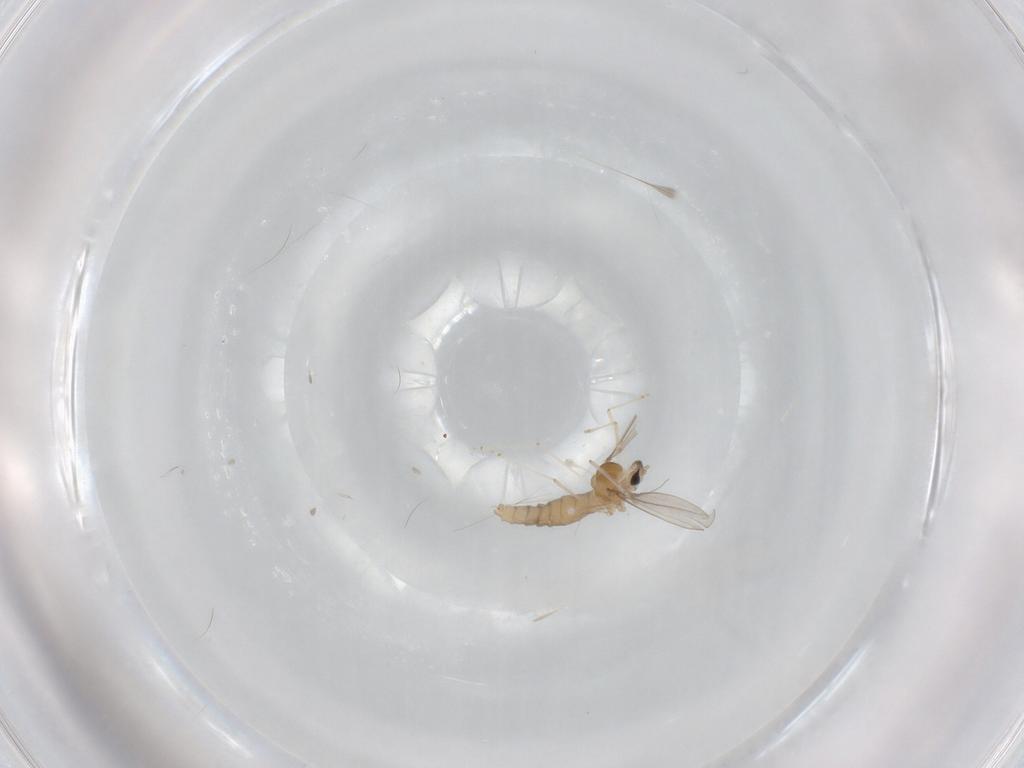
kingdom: Animalia
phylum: Arthropoda
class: Insecta
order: Diptera
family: Cecidomyiidae
